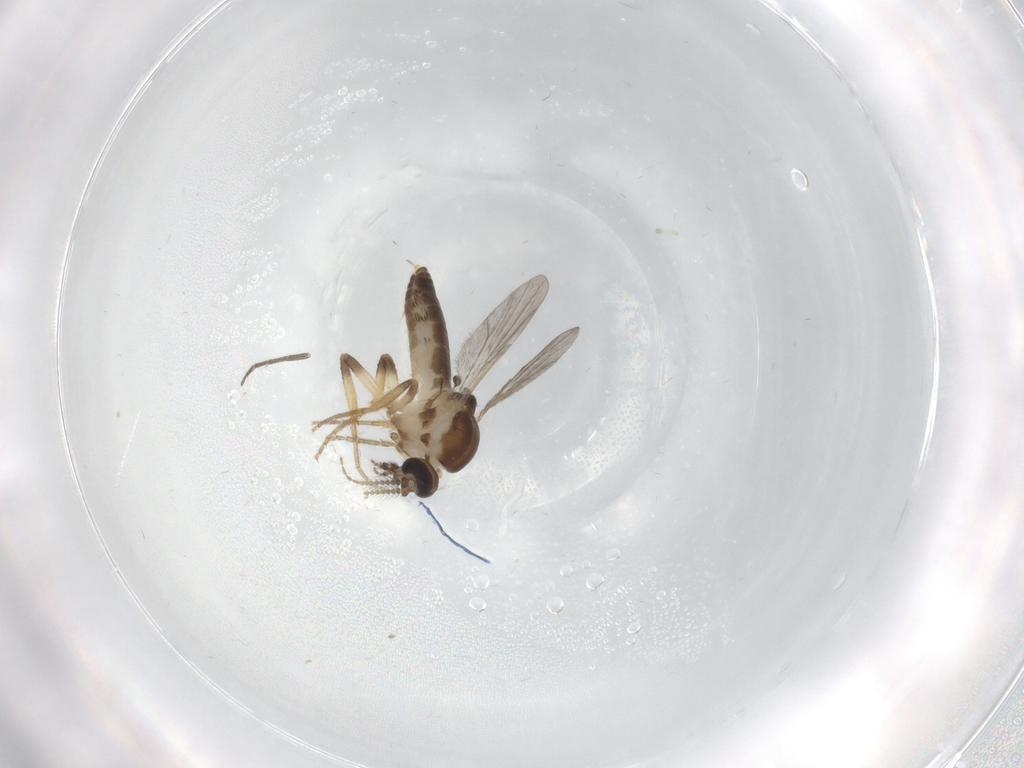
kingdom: Animalia
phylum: Arthropoda
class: Insecta
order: Diptera
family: Ceratopogonidae
